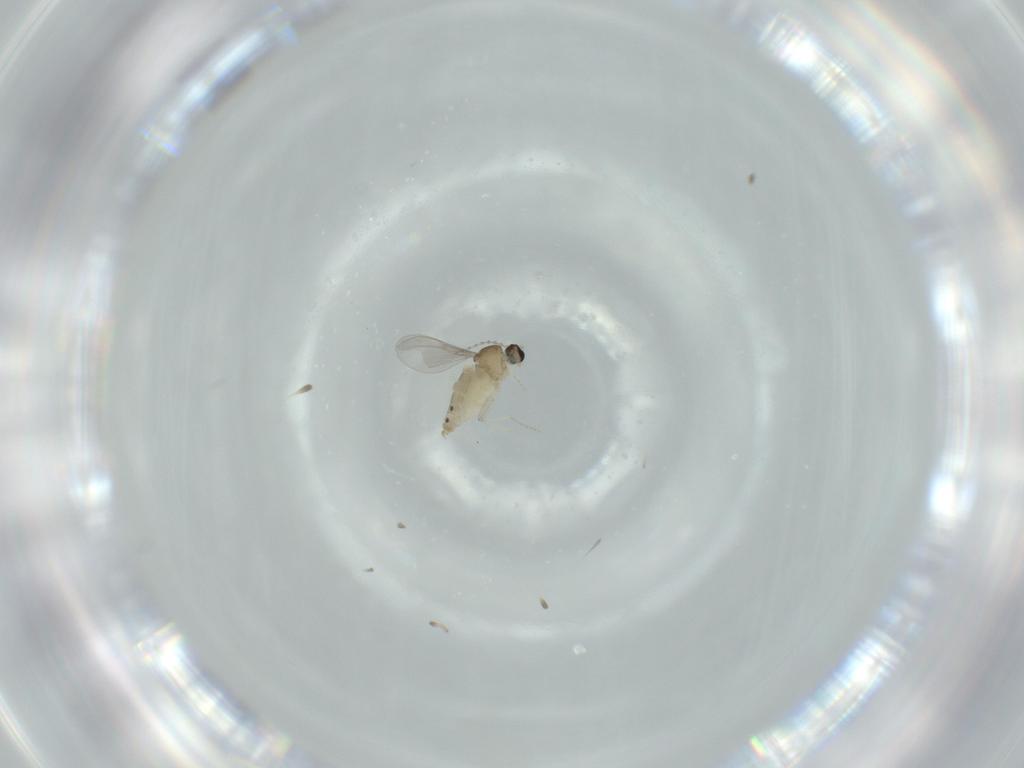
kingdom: Animalia
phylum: Arthropoda
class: Insecta
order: Diptera
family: Cecidomyiidae
